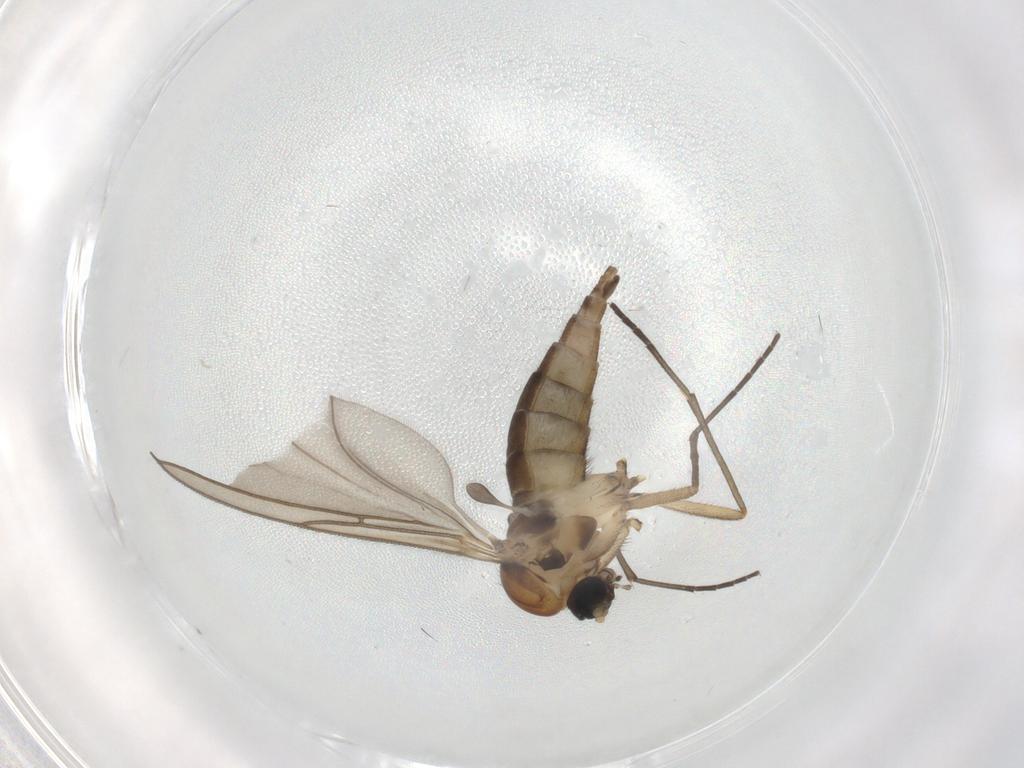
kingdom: Animalia
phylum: Arthropoda
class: Insecta
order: Diptera
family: Sciaridae
